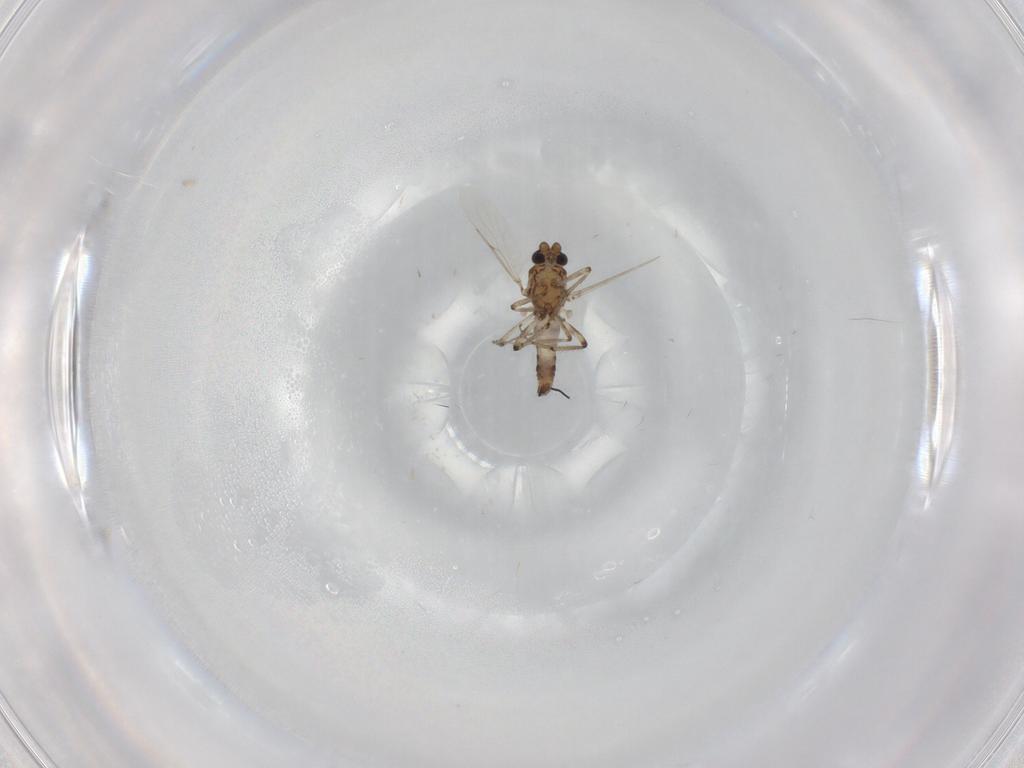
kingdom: Animalia
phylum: Arthropoda
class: Insecta
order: Diptera
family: Ceratopogonidae
